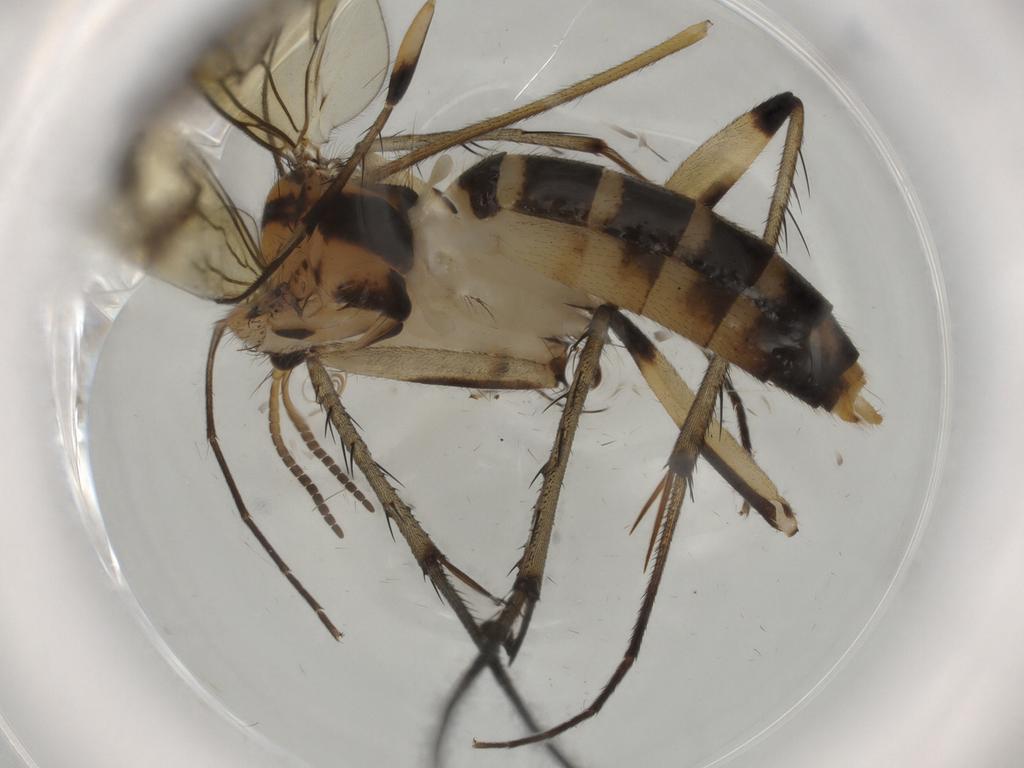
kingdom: Animalia
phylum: Arthropoda
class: Insecta
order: Diptera
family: Mycetophilidae
